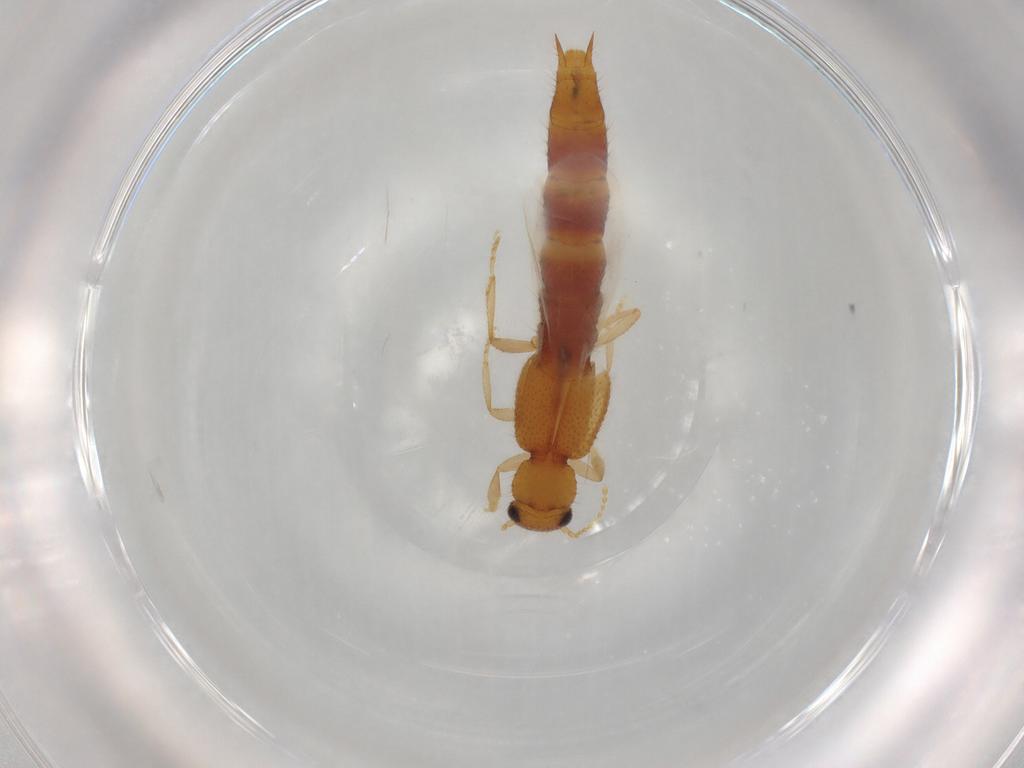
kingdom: Animalia
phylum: Arthropoda
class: Insecta
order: Coleoptera
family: Staphylinidae
